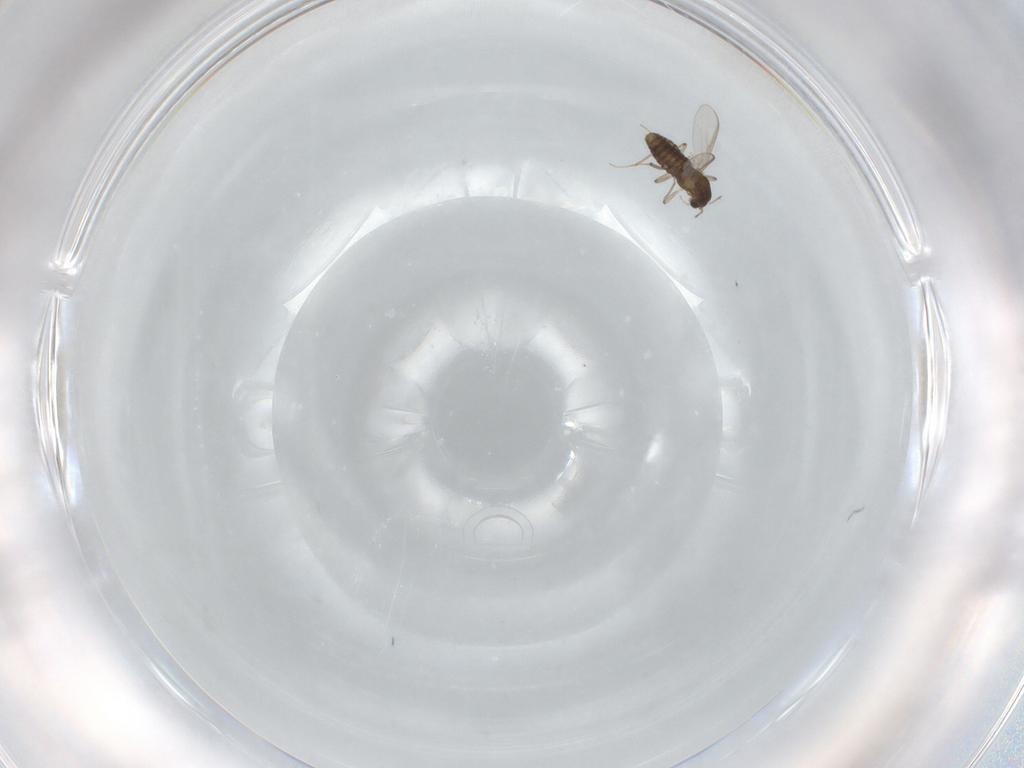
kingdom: Animalia
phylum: Arthropoda
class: Insecta
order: Diptera
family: Chironomidae
